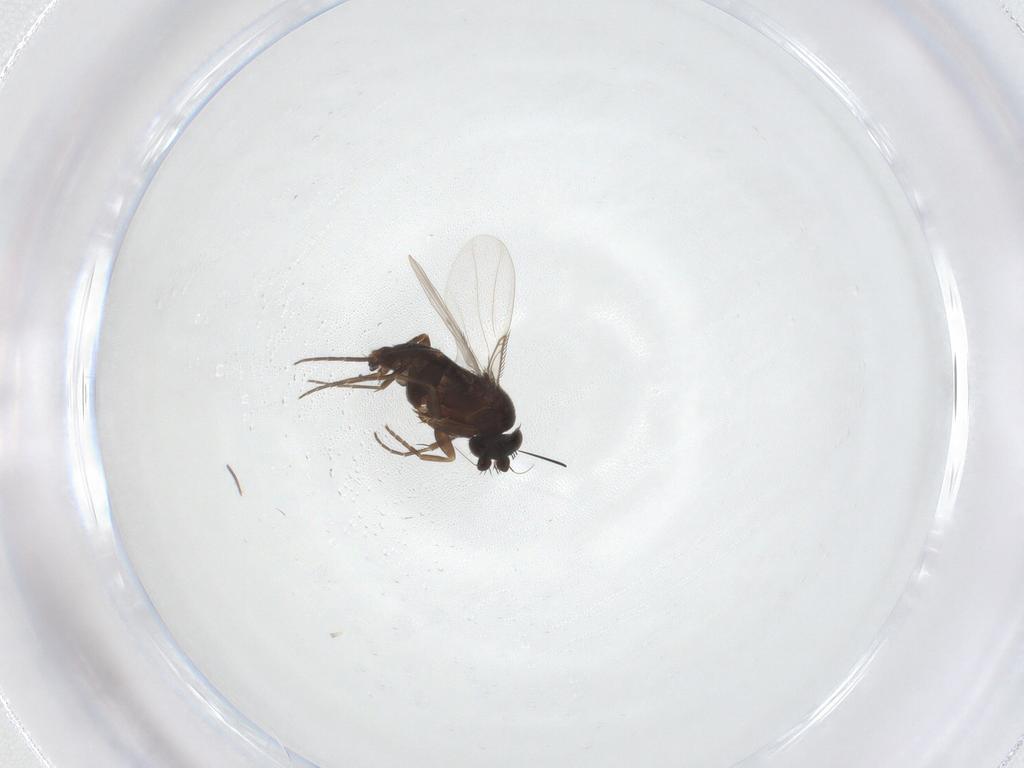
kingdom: Animalia
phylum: Arthropoda
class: Insecta
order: Diptera
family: Phoridae
